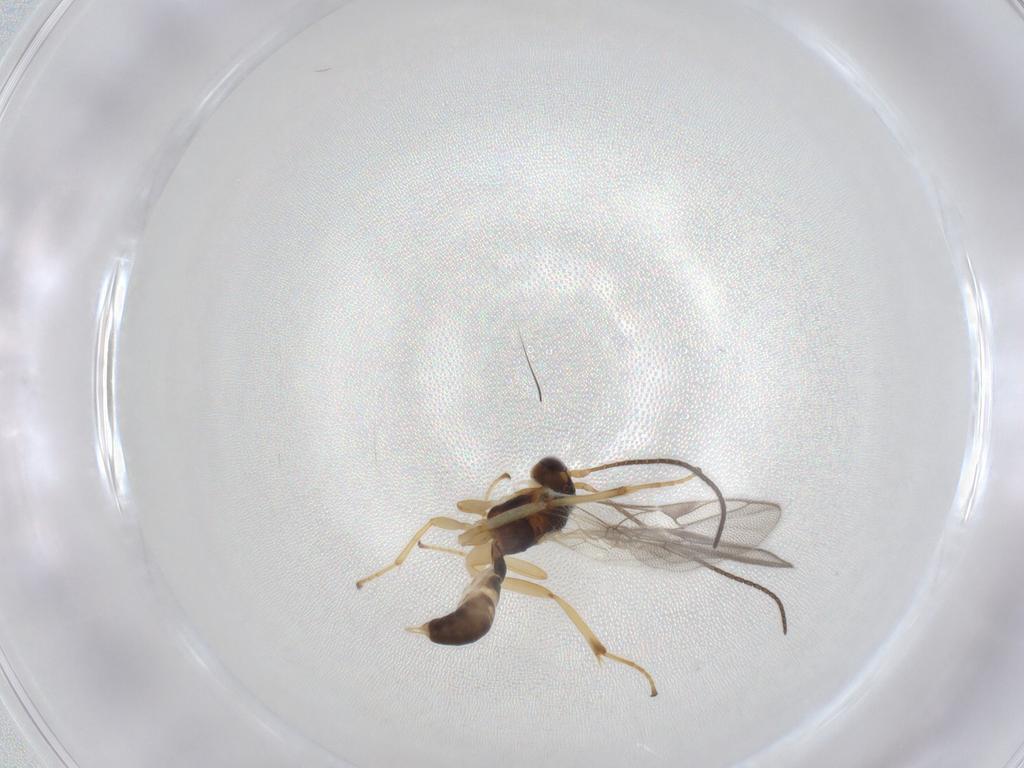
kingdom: Animalia
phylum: Arthropoda
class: Insecta
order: Hymenoptera
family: Ichneumonidae
